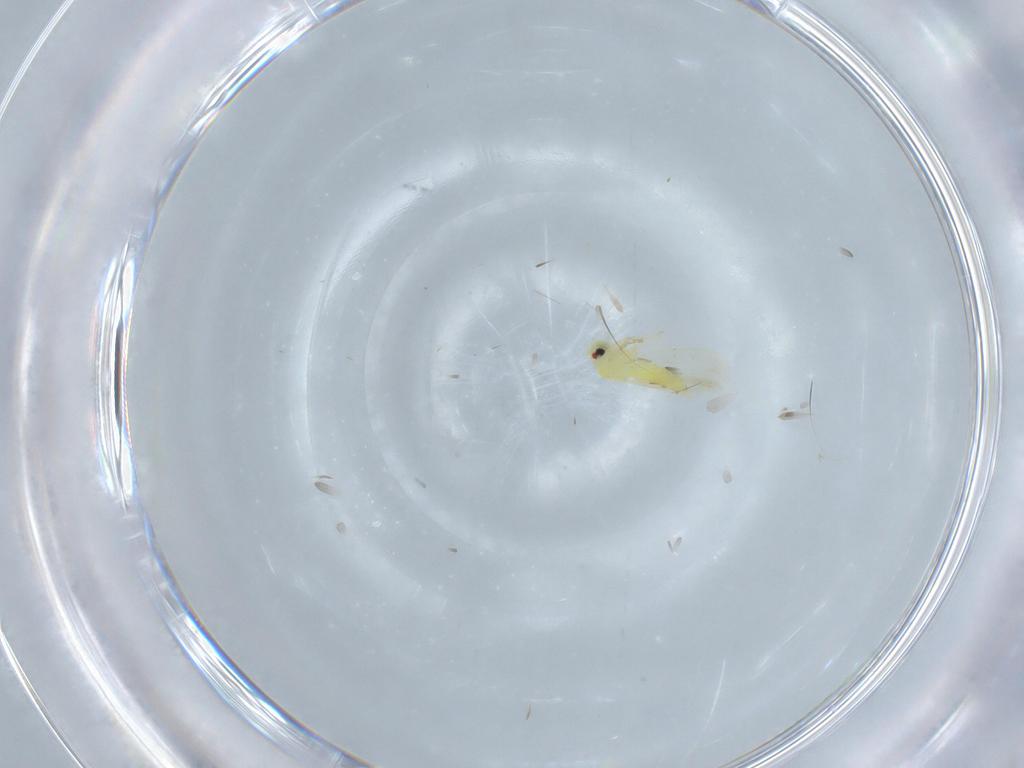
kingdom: Animalia
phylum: Arthropoda
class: Insecta
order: Hemiptera
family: Aleyrodidae
